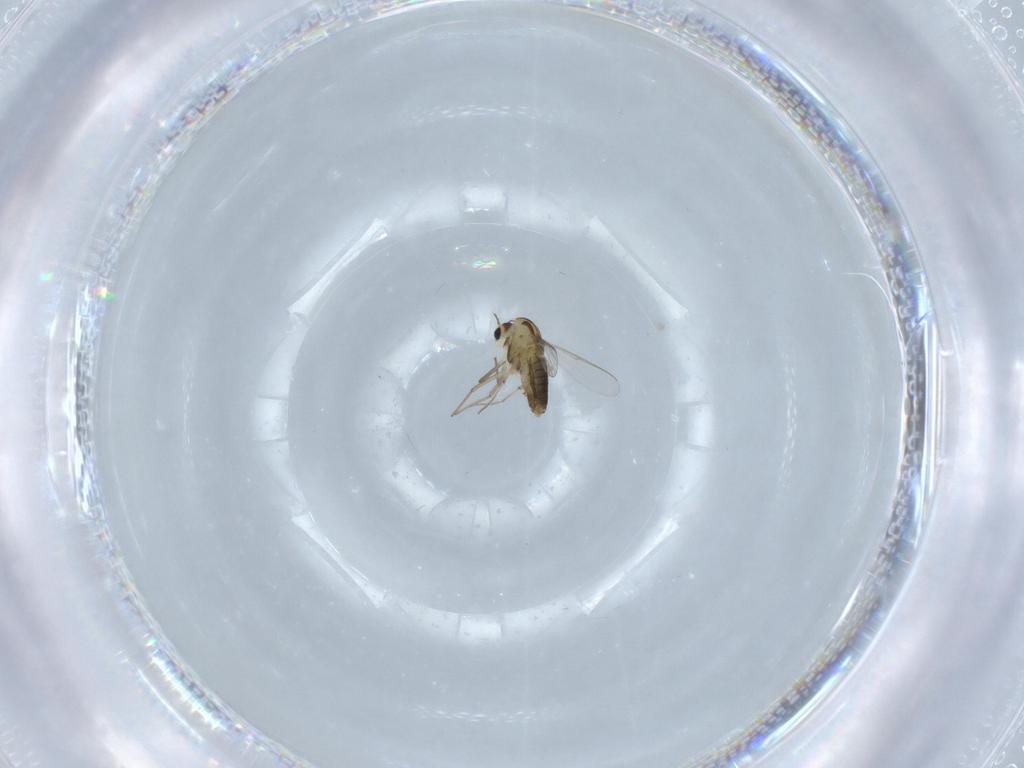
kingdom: Animalia
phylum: Arthropoda
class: Insecta
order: Diptera
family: Chironomidae
